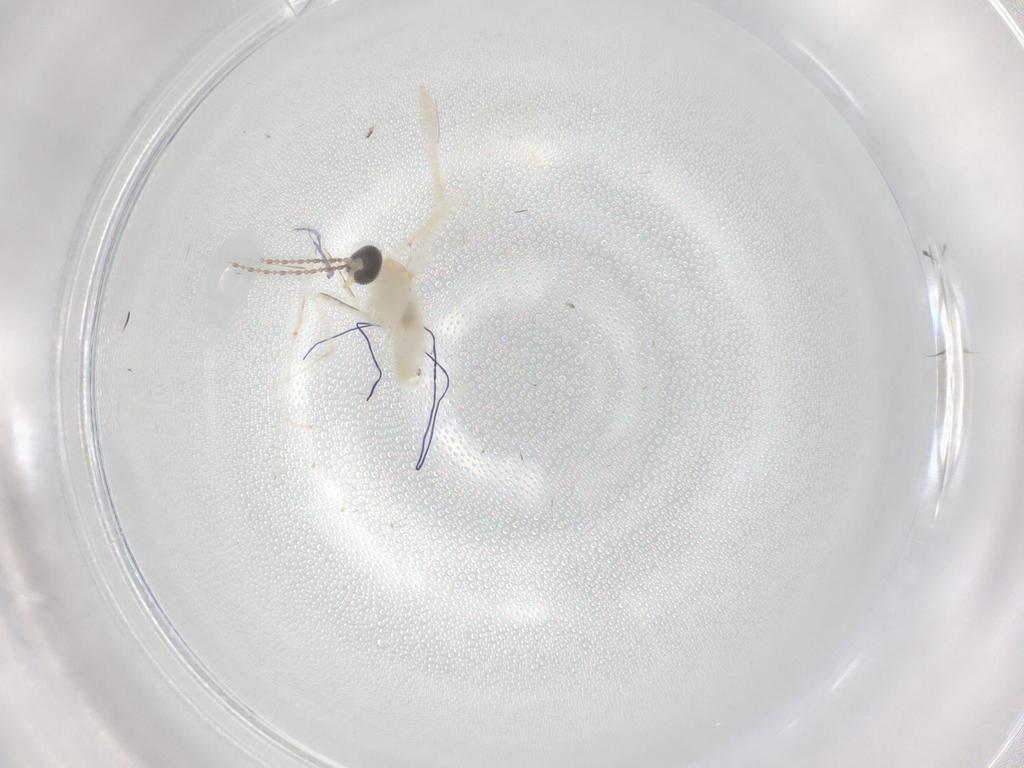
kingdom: Animalia
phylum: Arthropoda
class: Insecta
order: Diptera
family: Cecidomyiidae
